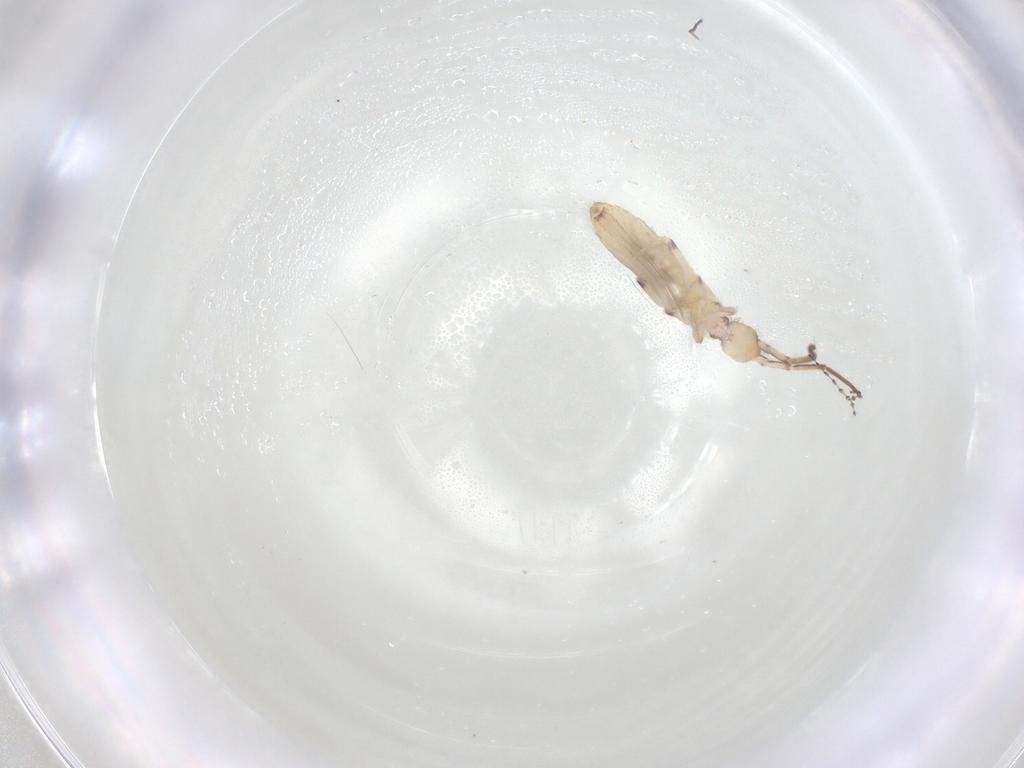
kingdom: Animalia
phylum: Arthropoda
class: Collembola
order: Entomobryomorpha
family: Entomobryidae
